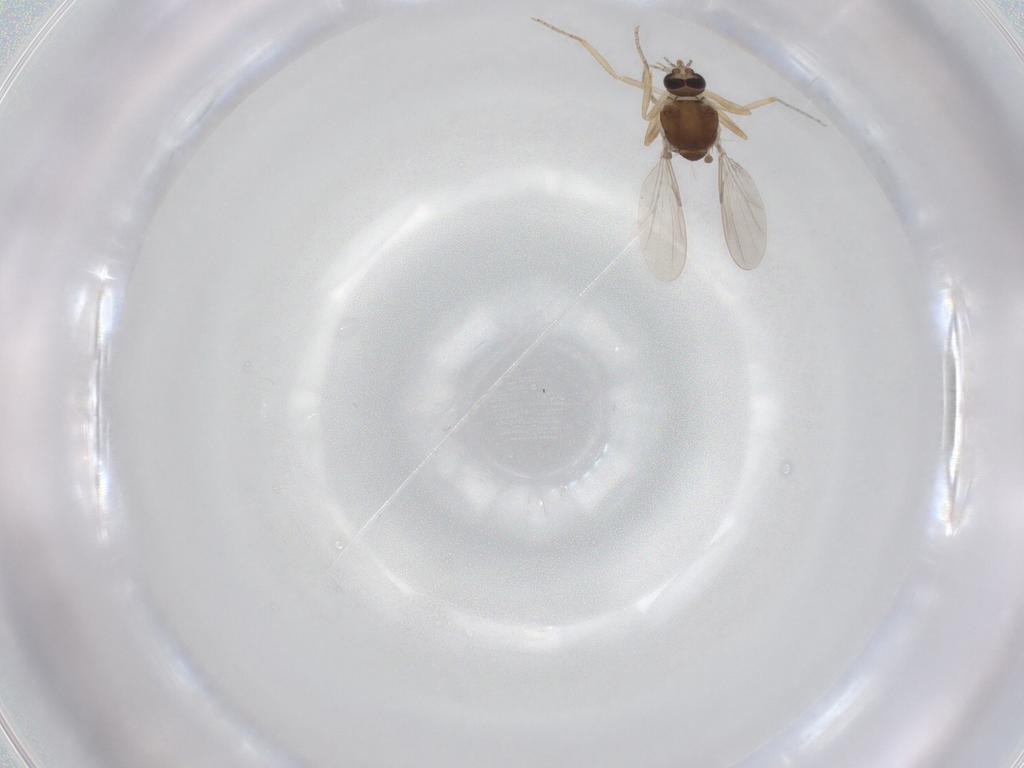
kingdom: Animalia
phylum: Arthropoda
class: Insecta
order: Diptera
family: Ceratopogonidae
